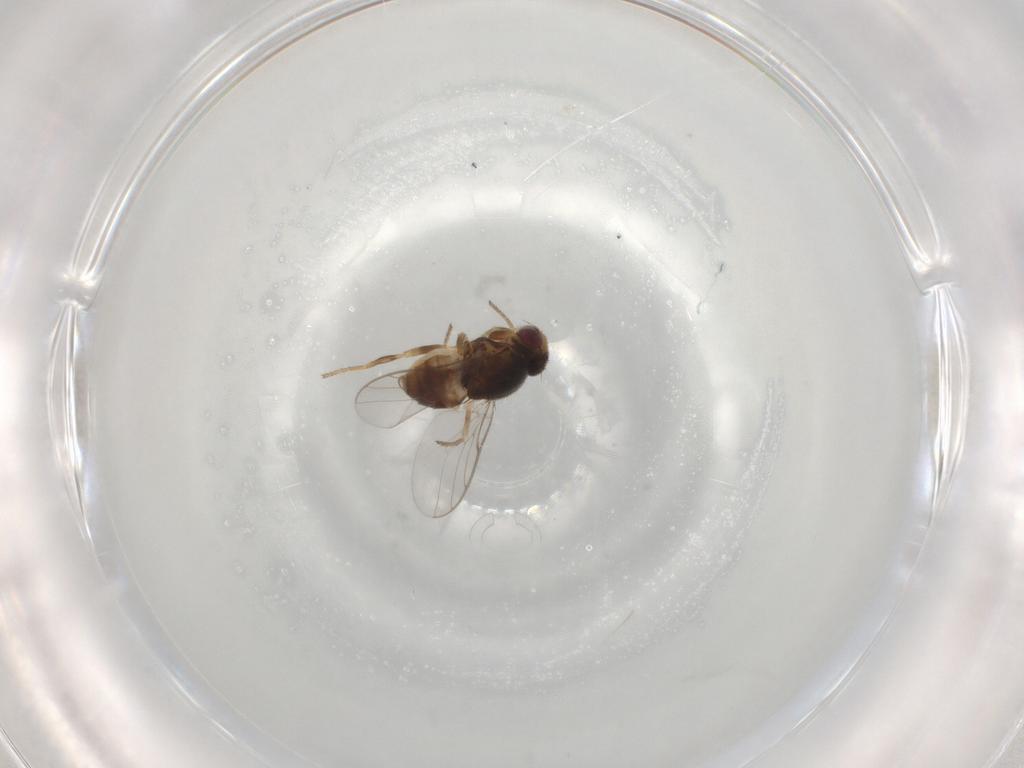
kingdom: Animalia
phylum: Arthropoda
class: Insecta
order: Diptera
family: Chloropidae
